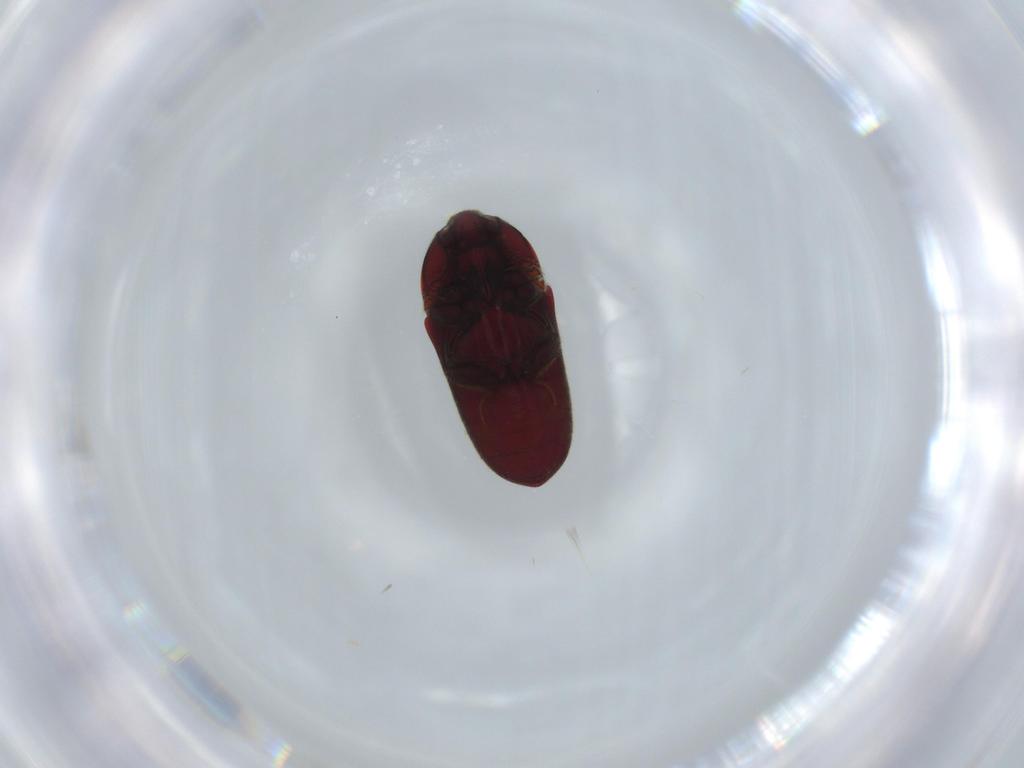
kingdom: Animalia
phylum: Arthropoda
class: Insecta
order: Coleoptera
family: Throscidae
